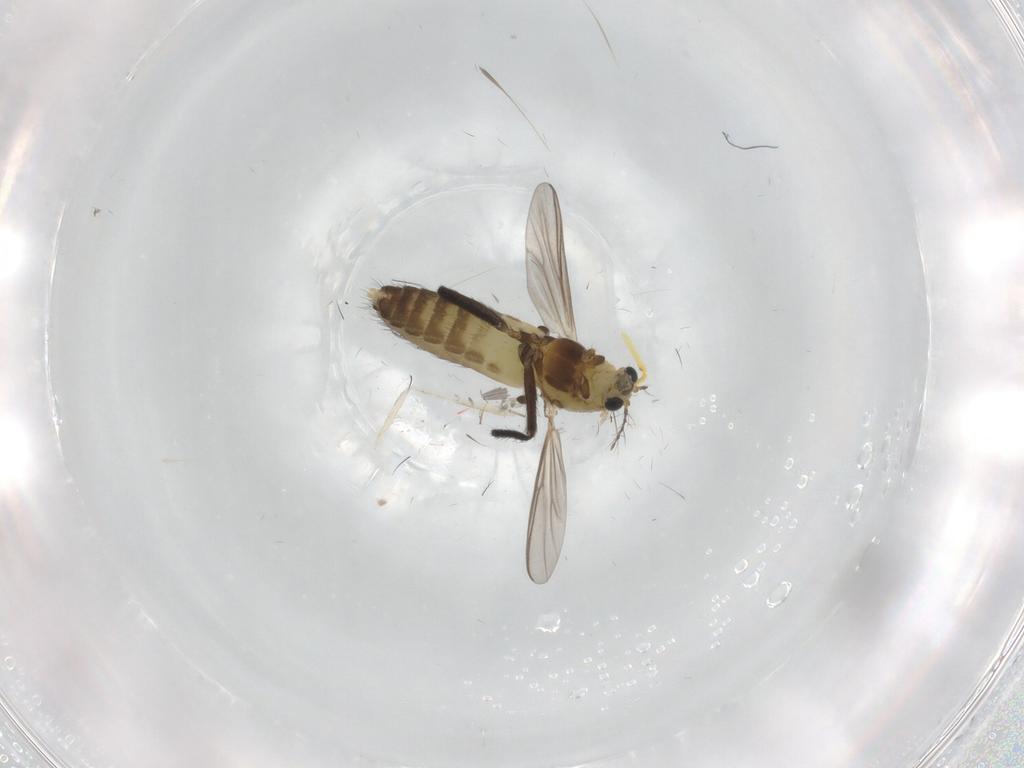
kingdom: Animalia
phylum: Arthropoda
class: Insecta
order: Diptera
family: Chironomidae
